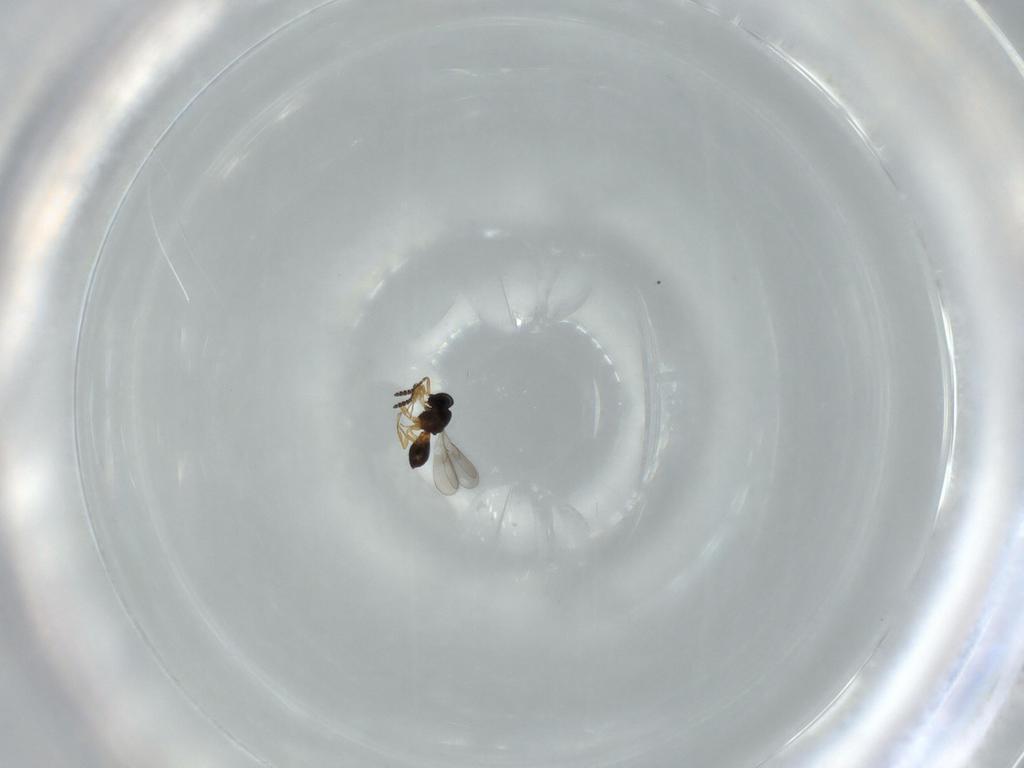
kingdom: Animalia
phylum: Arthropoda
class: Insecta
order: Hymenoptera
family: Scelionidae
